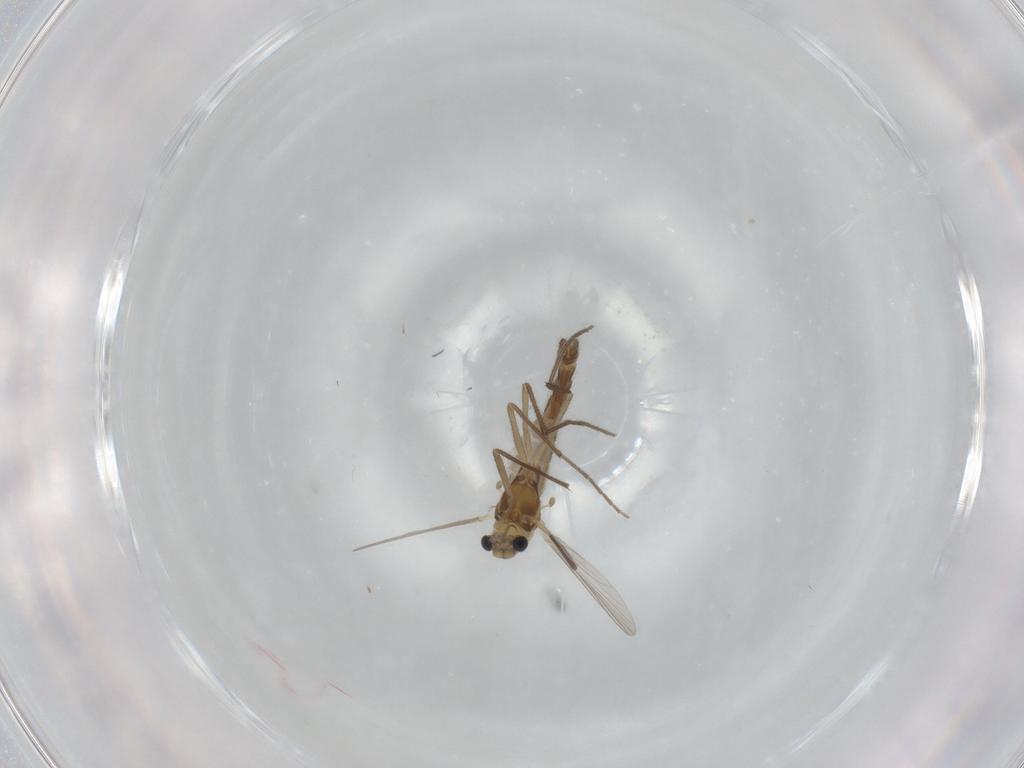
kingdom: Animalia
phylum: Arthropoda
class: Insecta
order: Diptera
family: Chironomidae
